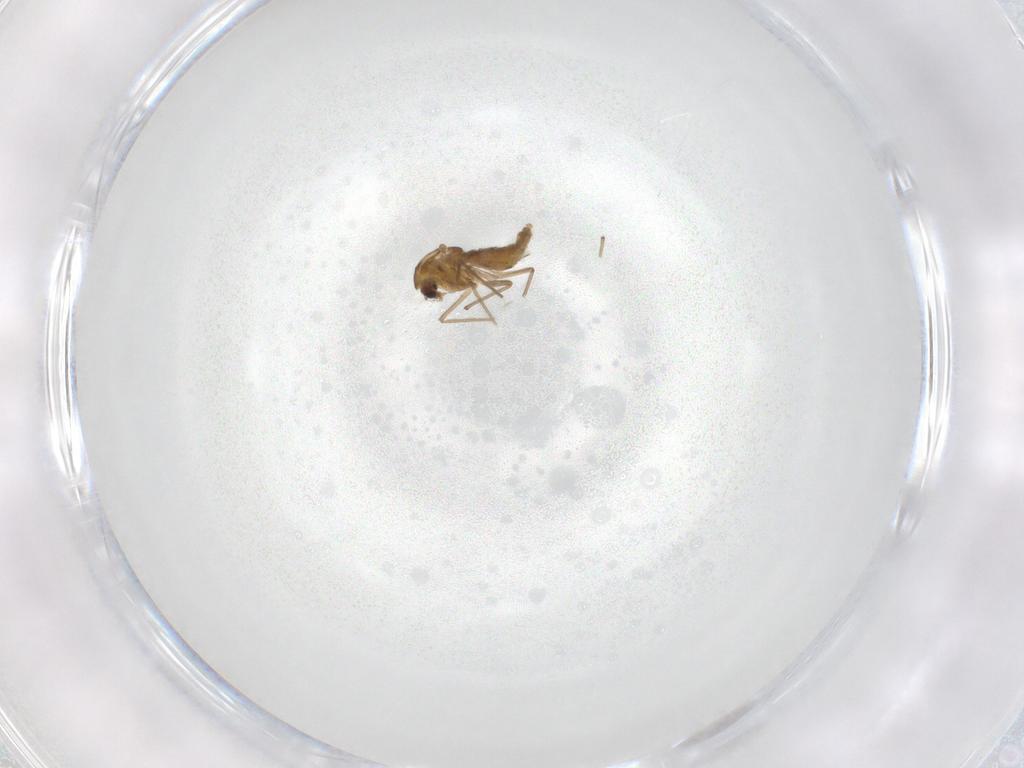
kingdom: Animalia
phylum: Arthropoda
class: Insecta
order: Diptera
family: Chironomidae
